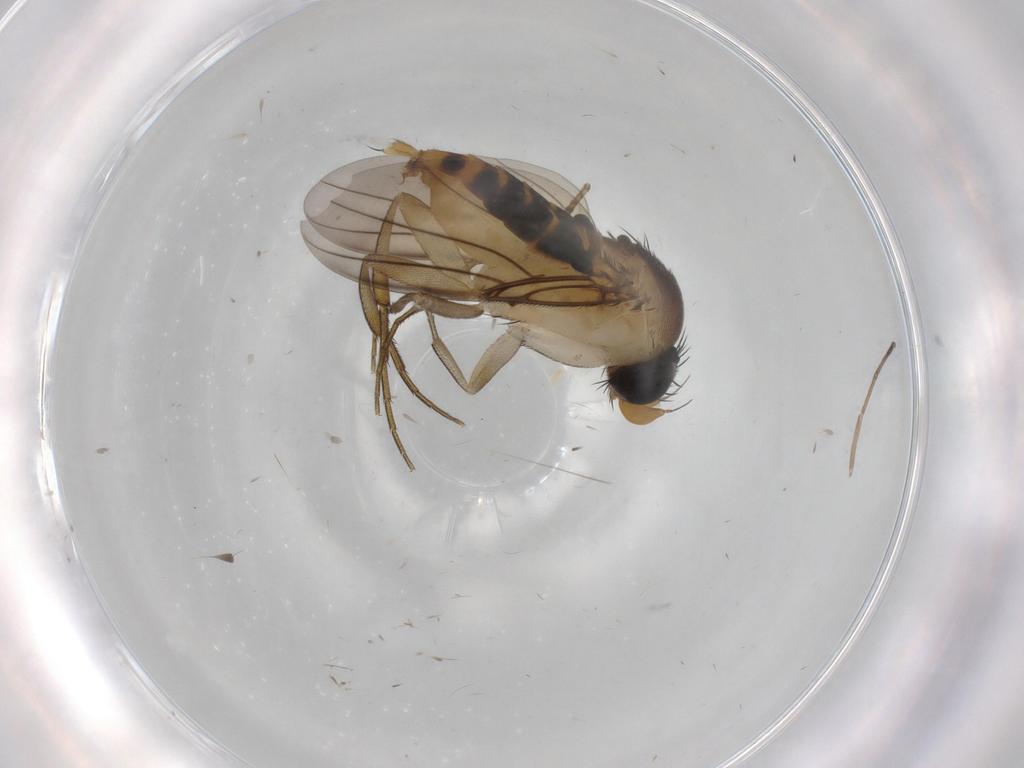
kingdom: Animalia
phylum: Arthropoda
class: Insecta
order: Diptera
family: Phoridae
